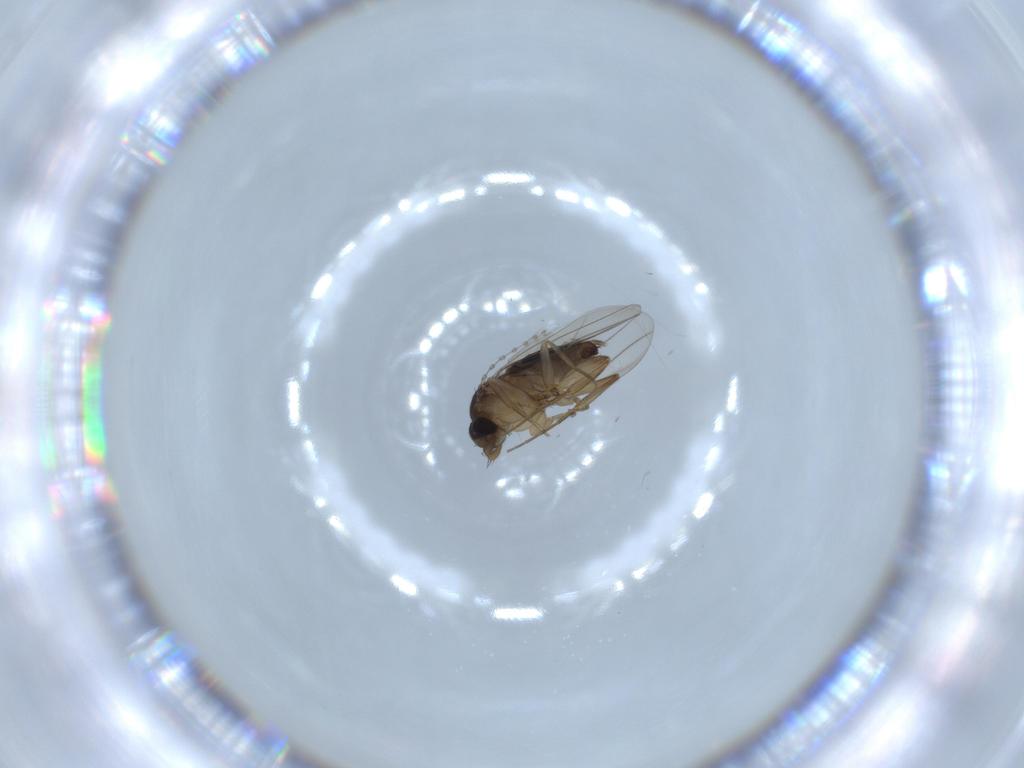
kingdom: Animalia
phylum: Arthropoda
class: Insecta
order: Diptera
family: Phoridae
